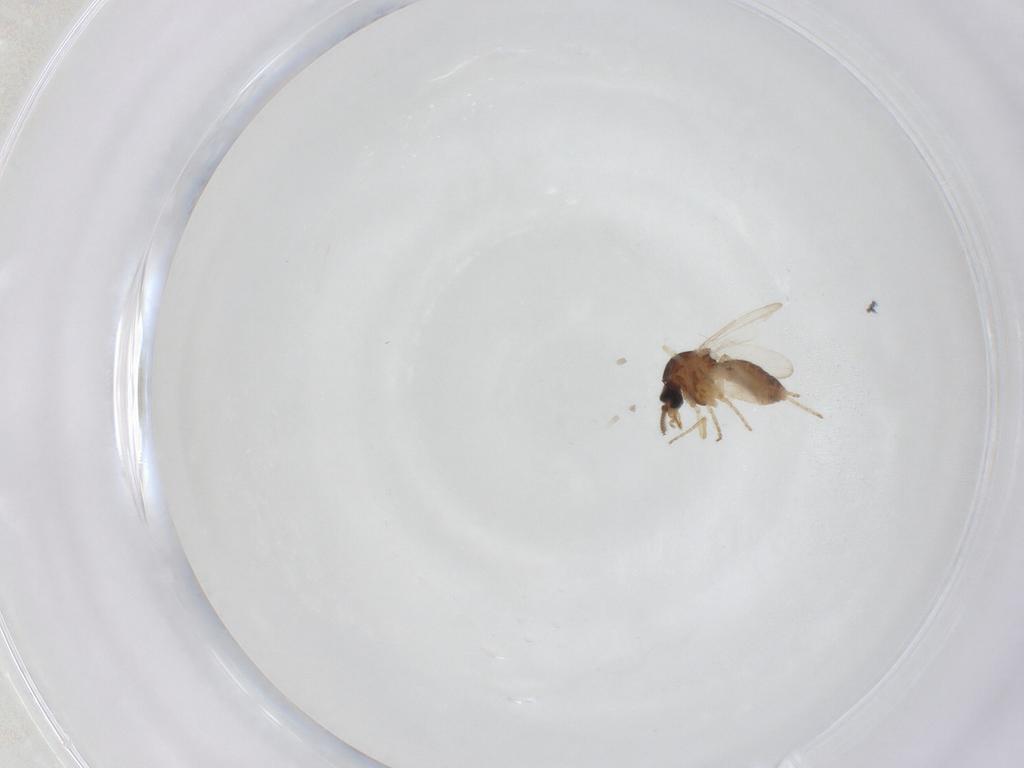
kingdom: Animalia
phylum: Arthropoda
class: Insecta
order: Diptera
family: Ceratopogonidae
